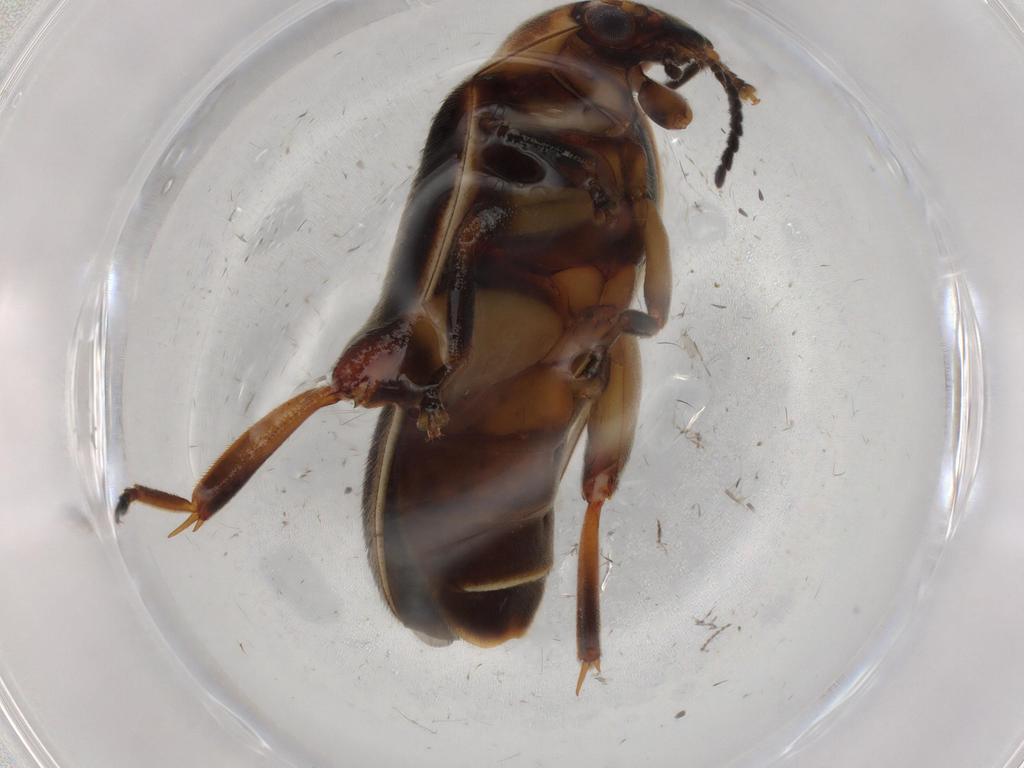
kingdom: Animalia
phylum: Arthropoda
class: Insecta
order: Coleoptera
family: Scirtidae
